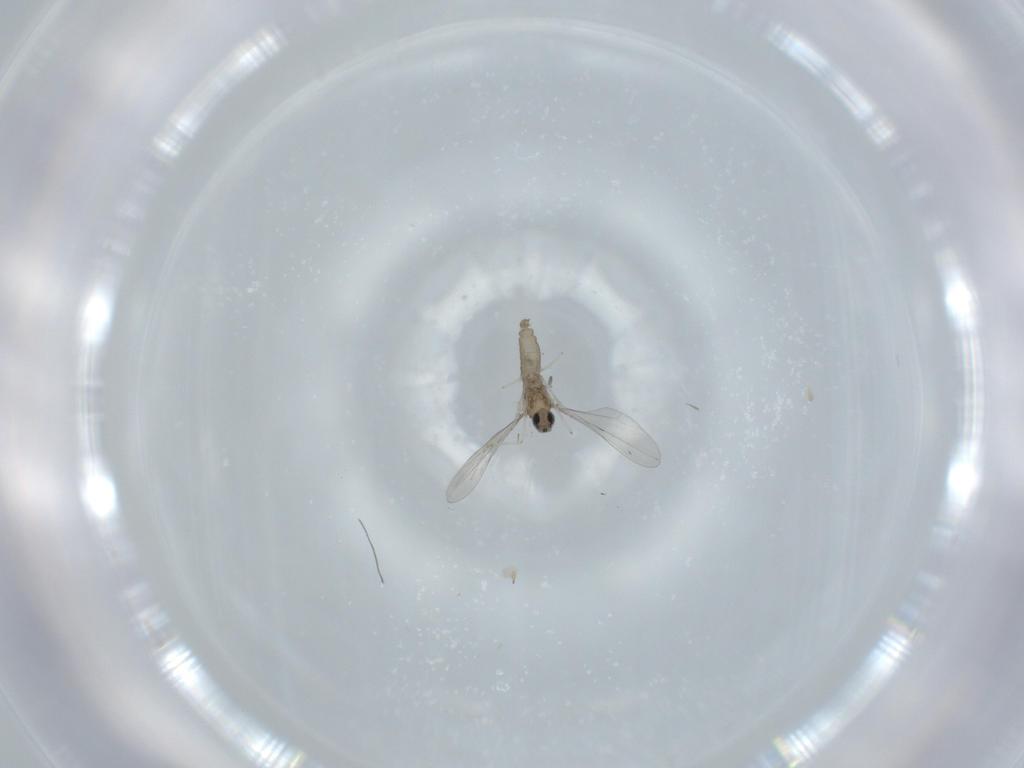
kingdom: Animalia
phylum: Arthropoda
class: Insecta
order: Diptera
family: Cecidomyiidae
